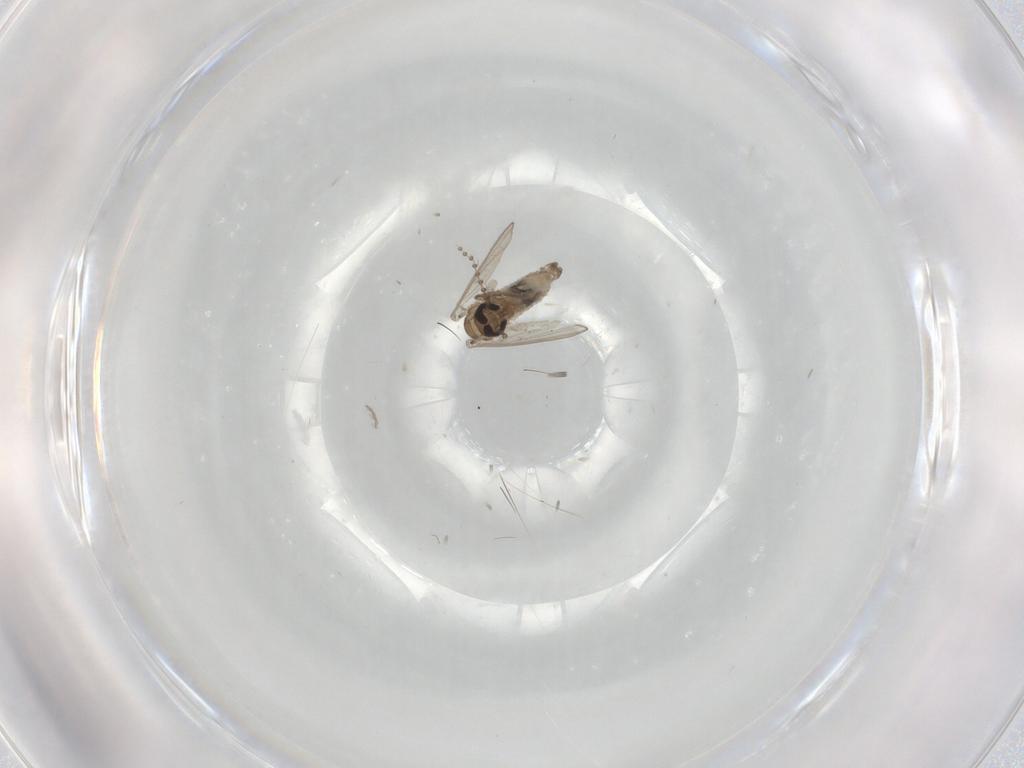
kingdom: Animalia
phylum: Arthropoda
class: Insecta
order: Diptera
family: Psychodidae
